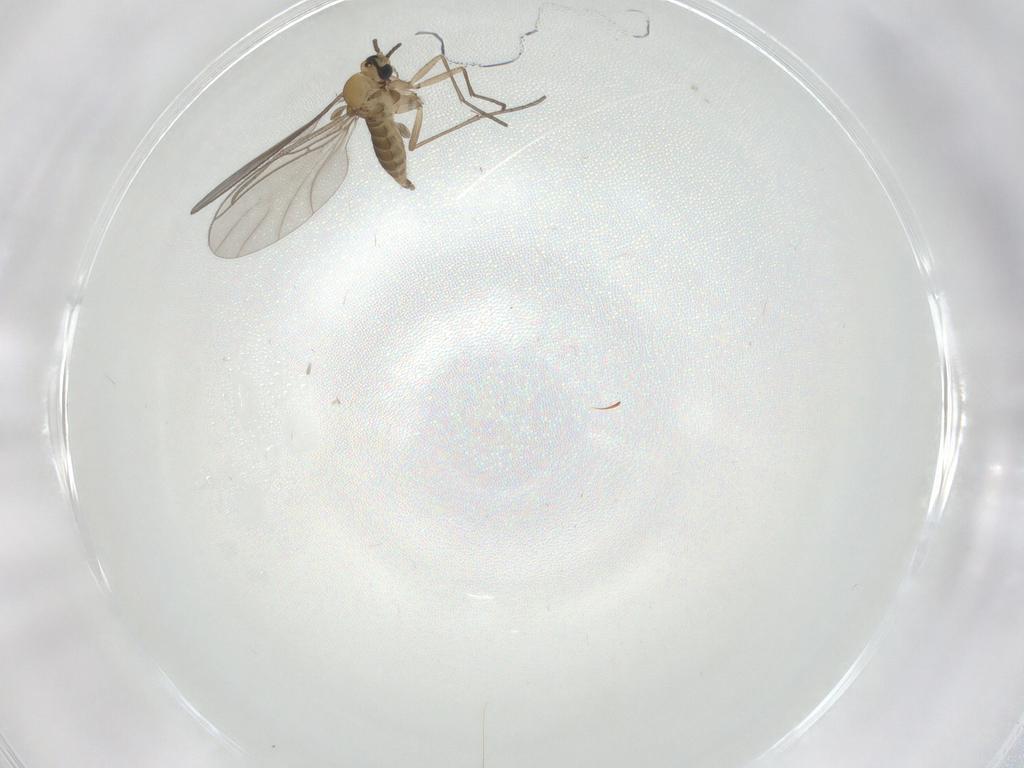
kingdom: Animalia
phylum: Arthropoda
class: Insecta
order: Diptera
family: Sciaridae
